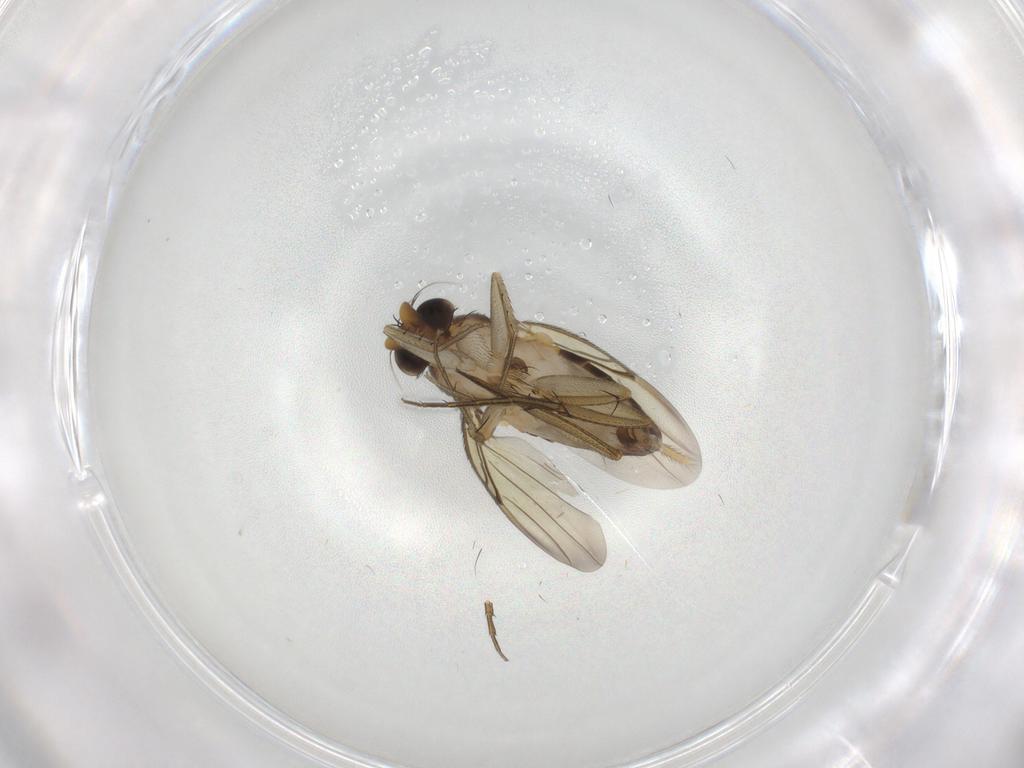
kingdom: Animalia
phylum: Arthropoda
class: Insecta
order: Diptera
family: Phoridae
